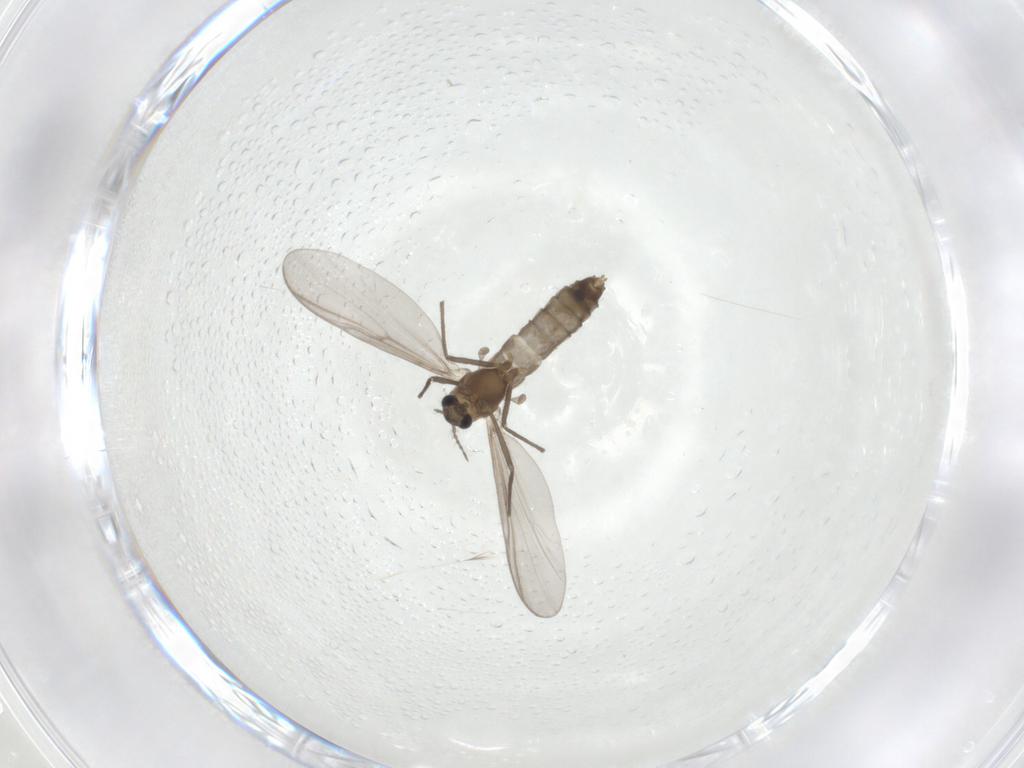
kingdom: Animalia
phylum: Arthropoda
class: Insecta
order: Diptera
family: Chironomidae
